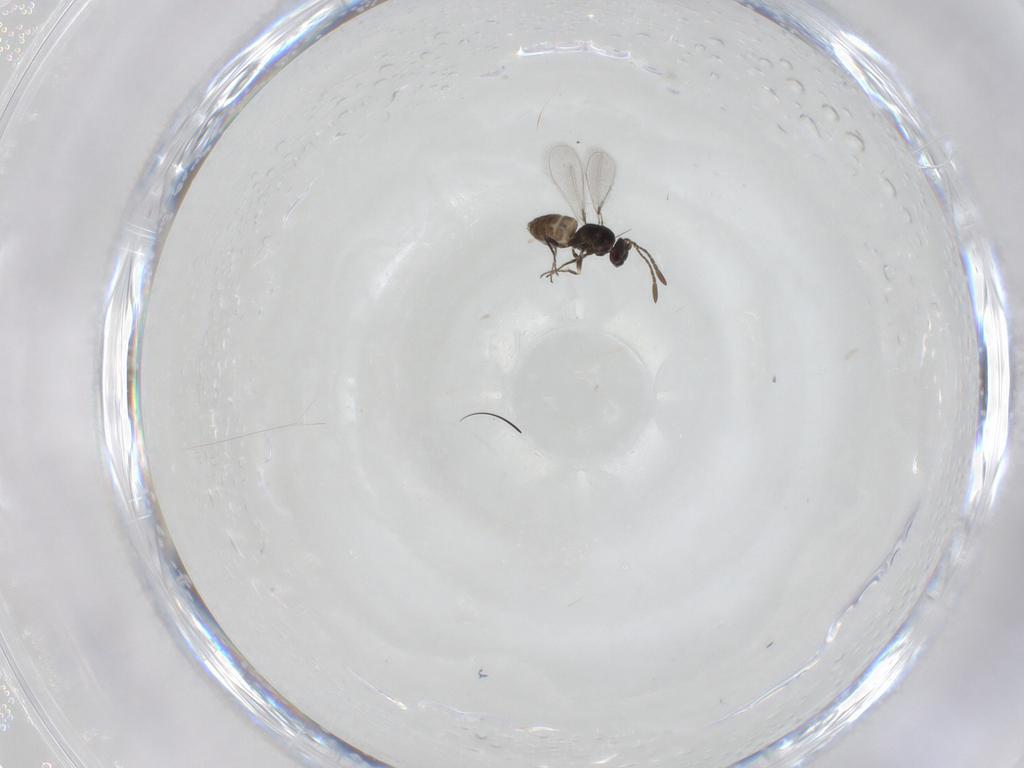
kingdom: Animalia
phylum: Arthropoda
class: Insecta
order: Hymenoptera
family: Mymaridae
